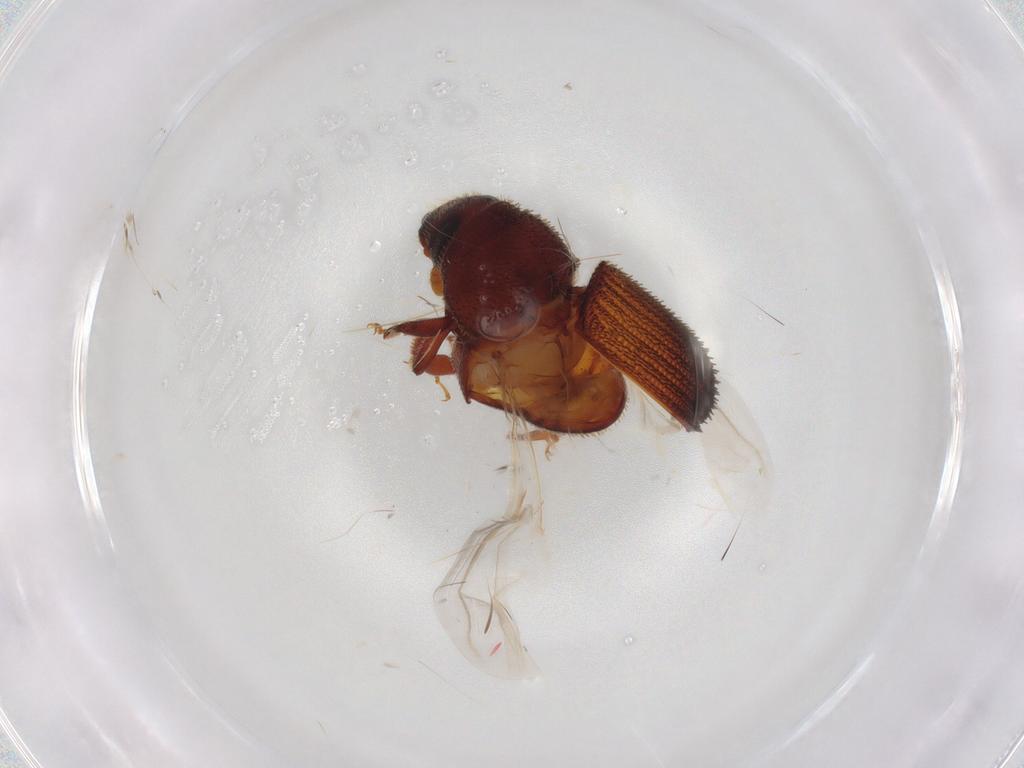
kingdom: Animalia
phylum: Arthropoda
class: Insecta
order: Coleoptera
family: Curculionidae
